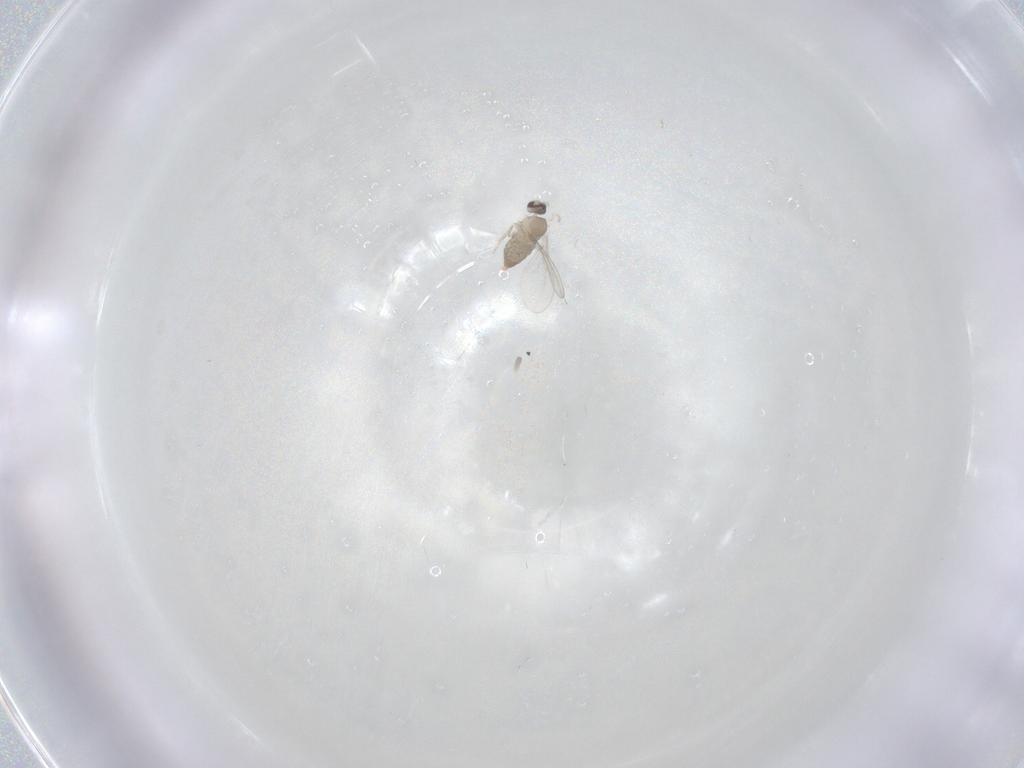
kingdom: Animalia
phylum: Arthropoda
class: Insecta
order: Diptera
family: Cecidomyiidae
